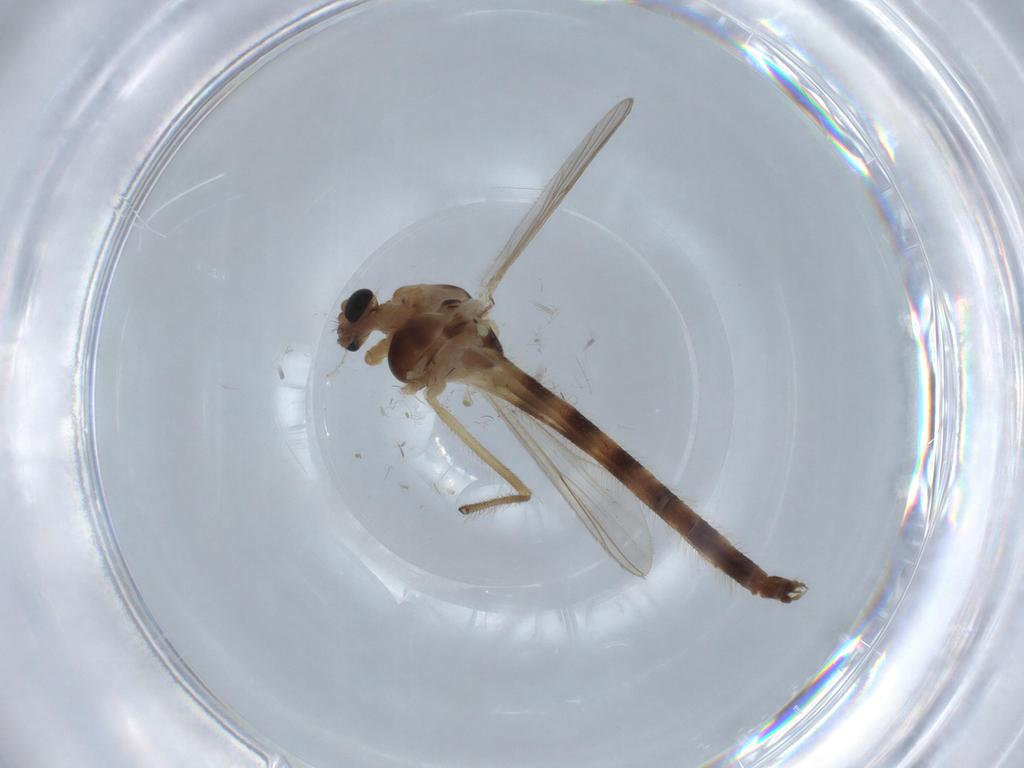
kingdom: Animalia
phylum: Arthropoda
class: Insecta
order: Diptera
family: Chironomidae
